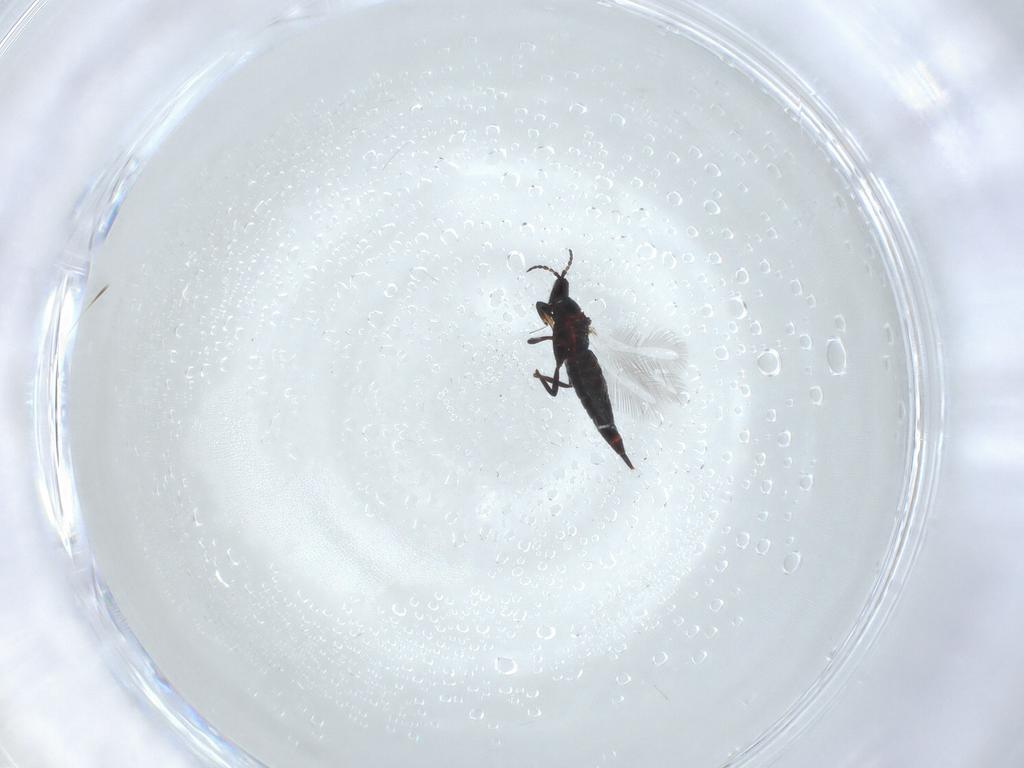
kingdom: Animalia
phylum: Arthropoda
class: Insecta
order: Thysanoptera
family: Phlaeothripidae
